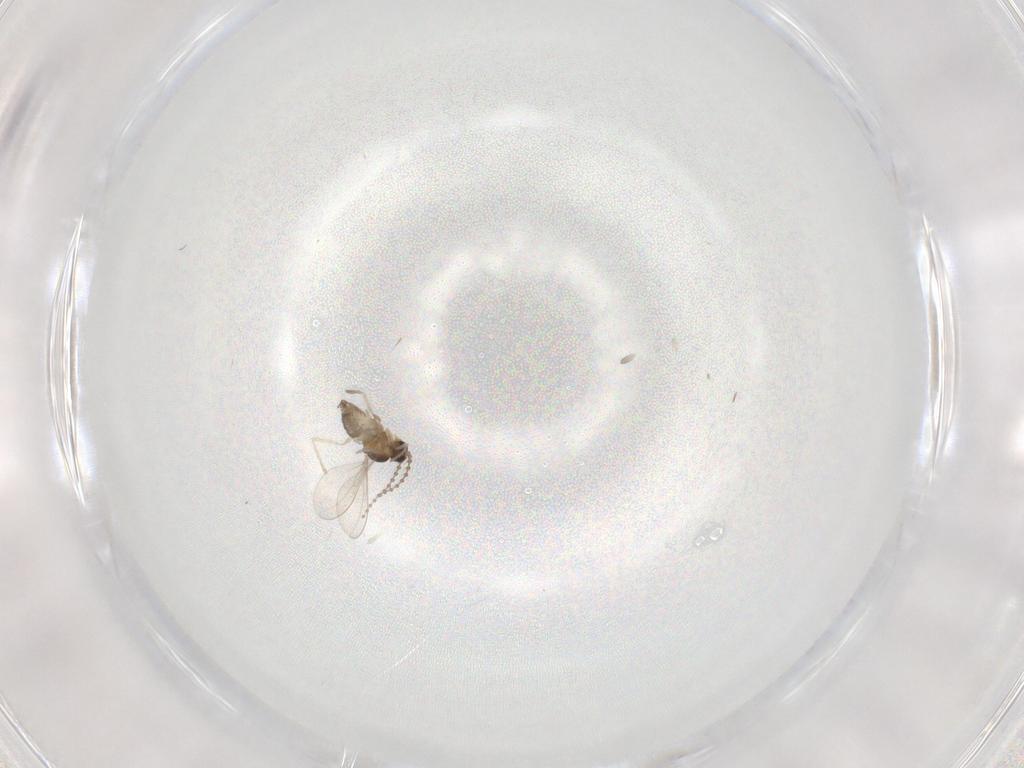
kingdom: Animalia
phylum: Arthropoda
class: Insecta
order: Diptera
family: Cecidomyiidae
